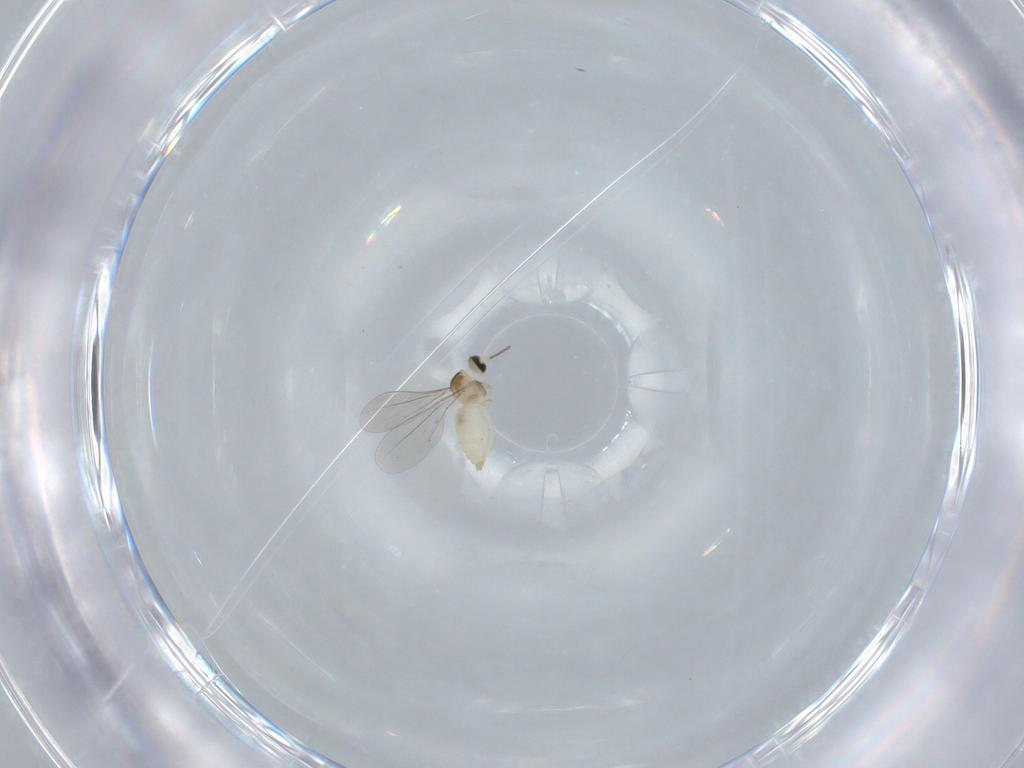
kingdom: Animalia
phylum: Arthropoda
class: Insecta
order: Diptera
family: Cecidomyiidae
